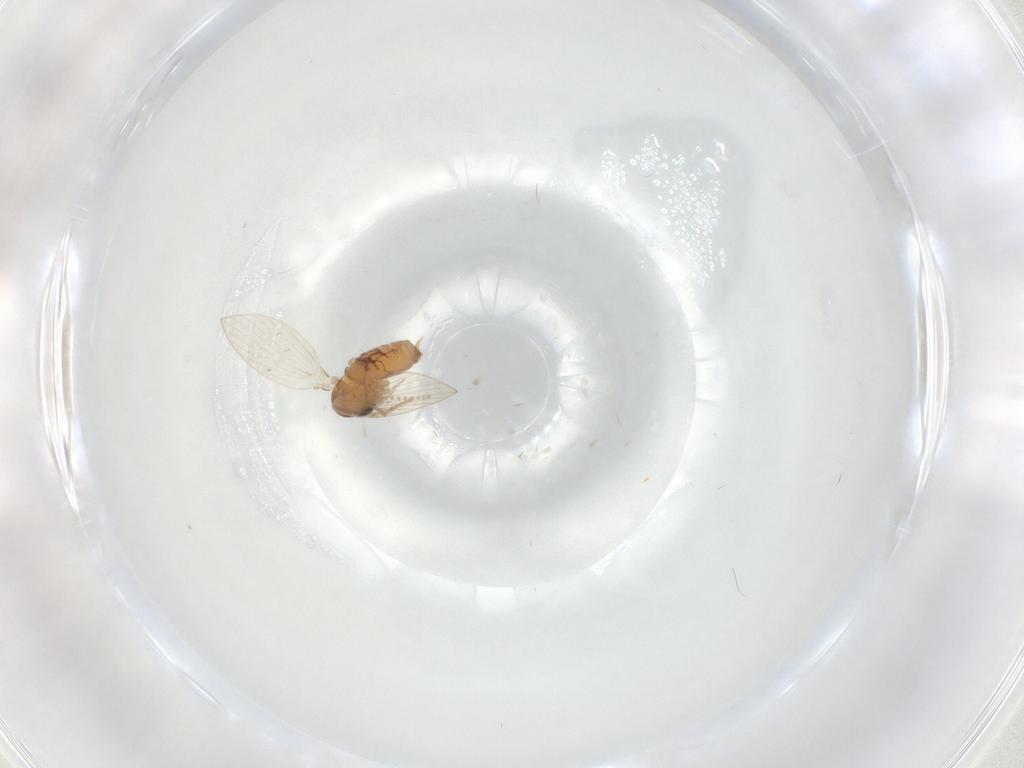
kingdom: Animalia
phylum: Arthropoda
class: Insecta
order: Diptera
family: Psychodidae
